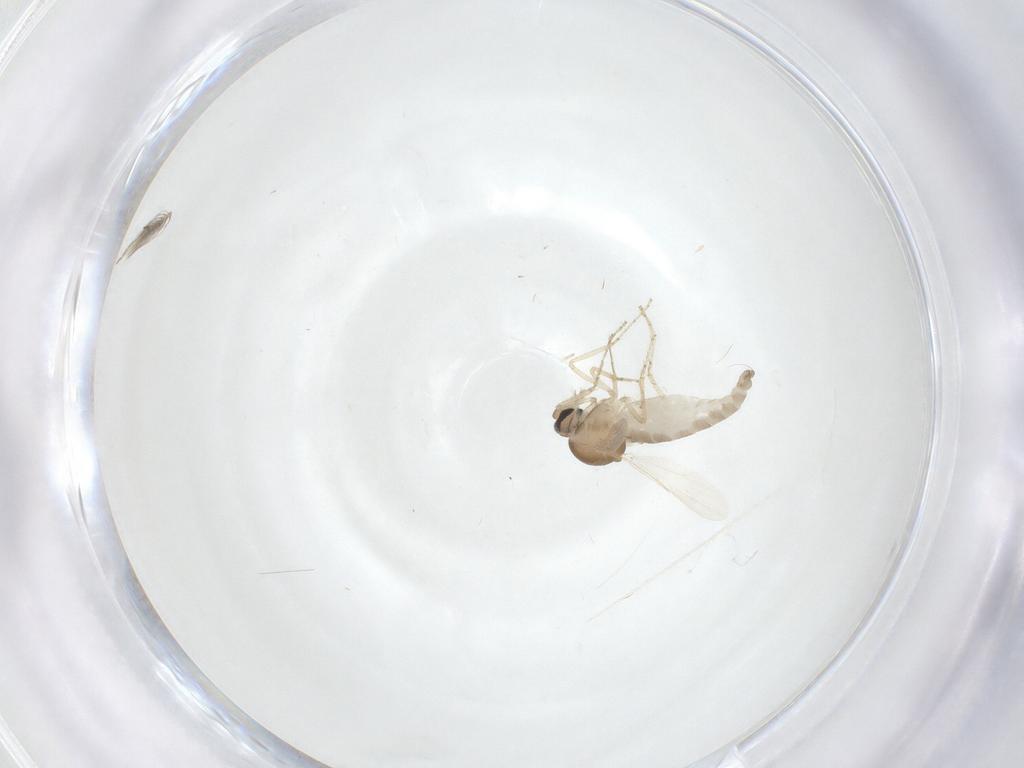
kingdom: Animalia
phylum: Arthropoda
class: Insecta
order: Diptera
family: Ceratopogonidae
